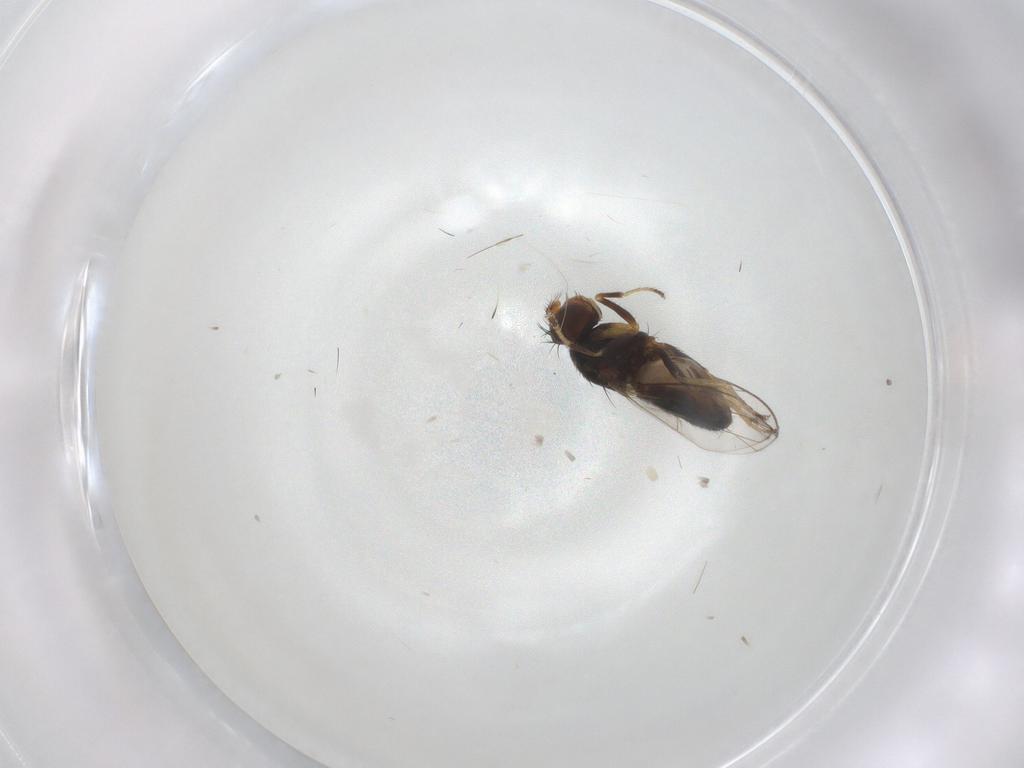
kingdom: Animalia
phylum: Arthropoda
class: Insecta
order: Diptera
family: Ephydridae
